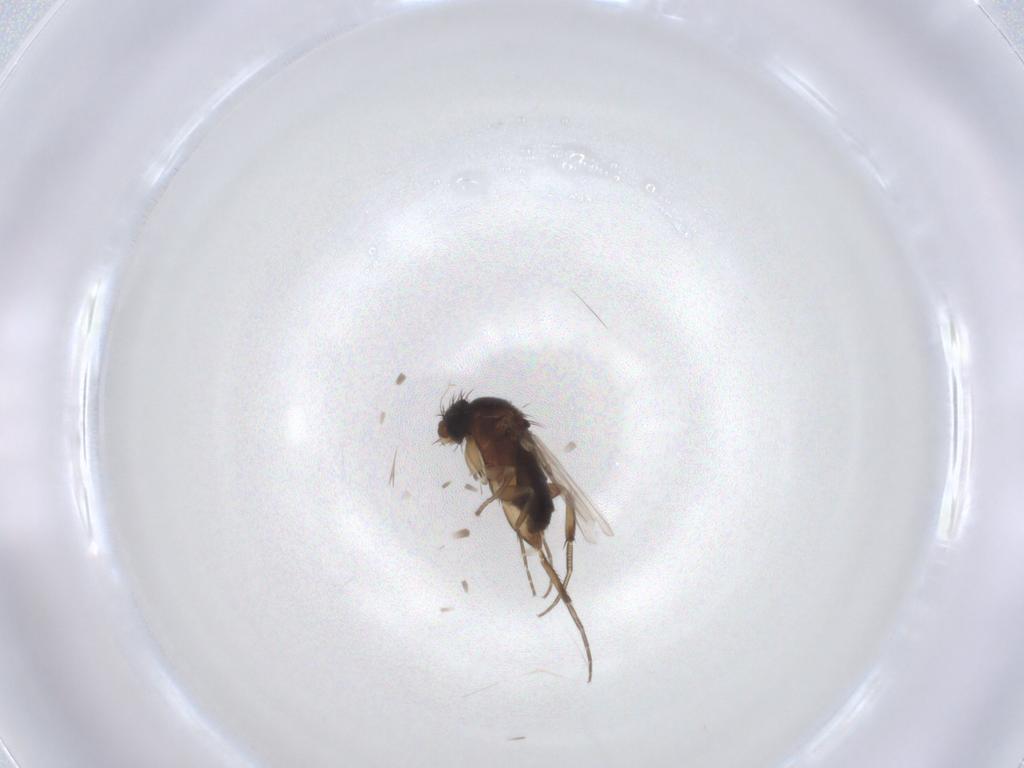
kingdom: Animalia
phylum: Arthropoda
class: Insecta
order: Diptera
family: Phoridae
